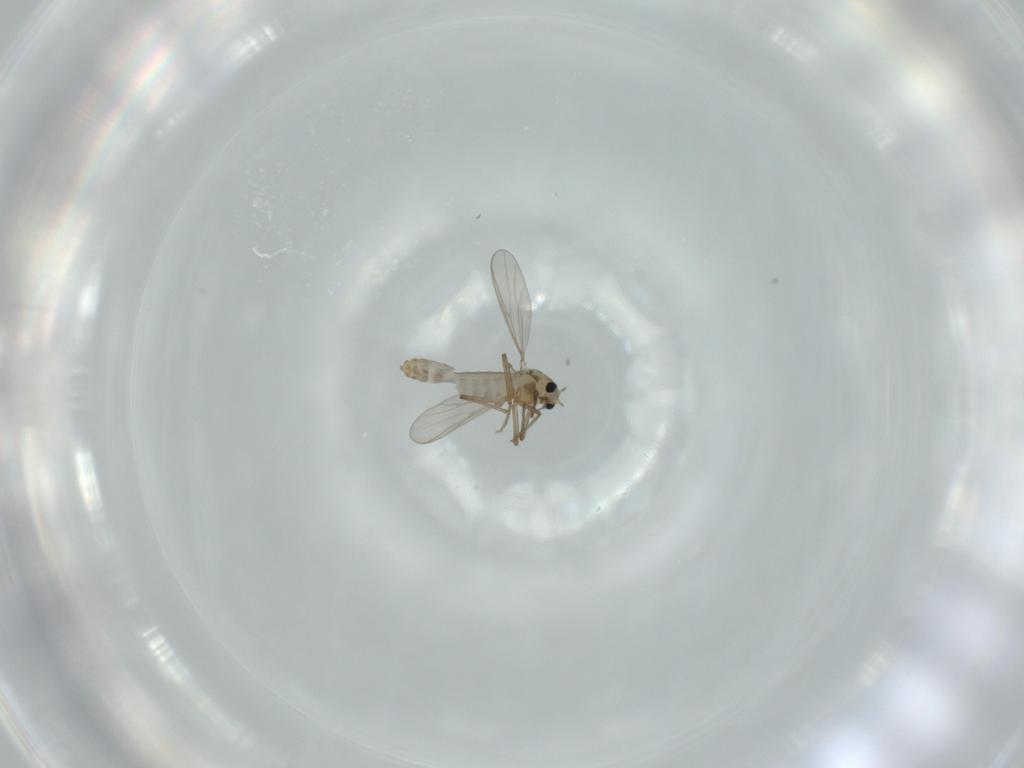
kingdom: Animalia
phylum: Arthropoda
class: Insecta
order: Diptera
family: Chironomidae
